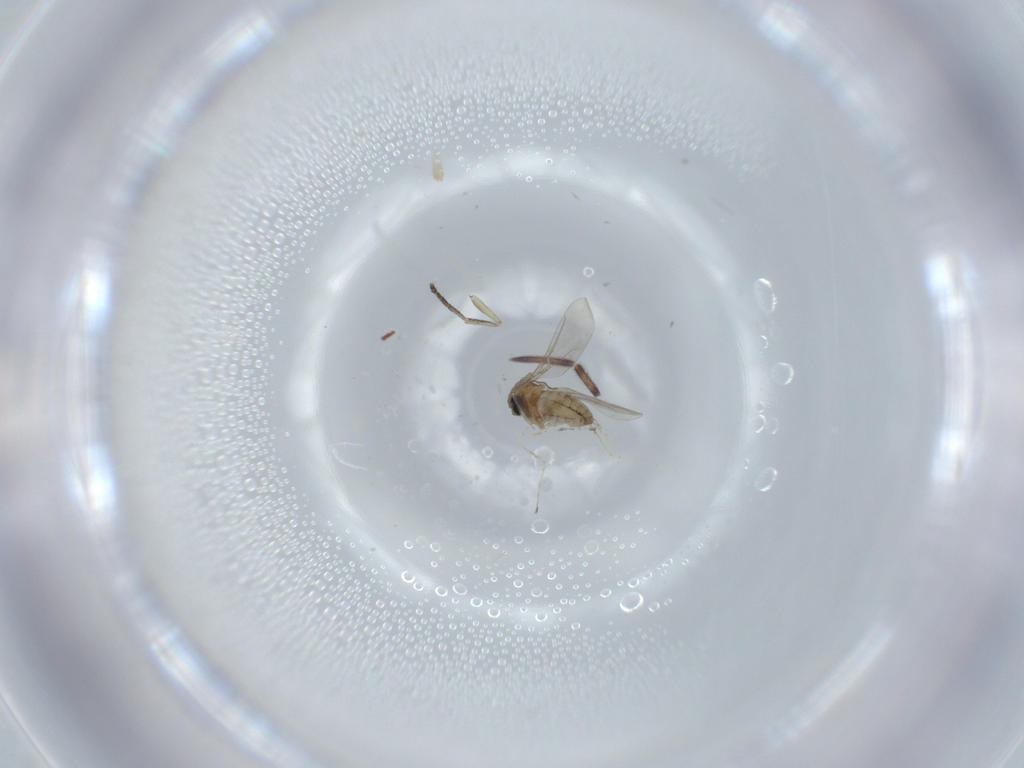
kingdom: Animalia
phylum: Arthropoda
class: Insecta
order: Diptera
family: Cecidomyiidae
